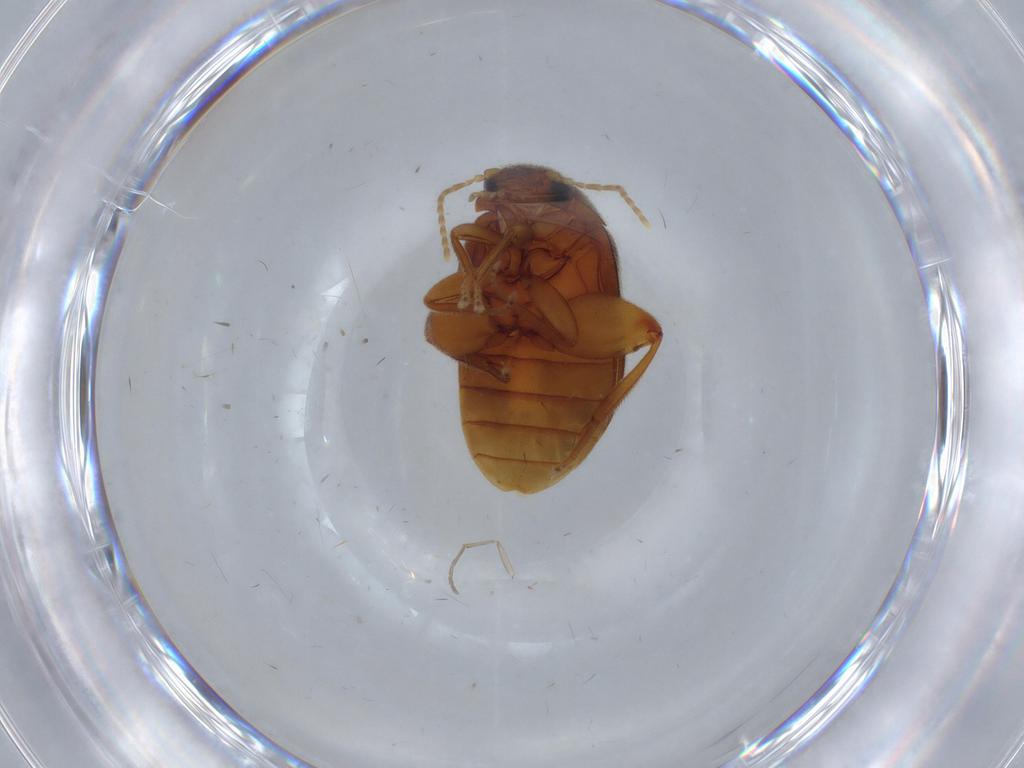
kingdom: Animalia
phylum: Arthropoda
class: Insecta
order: Coleoptera
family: Scirtidae
